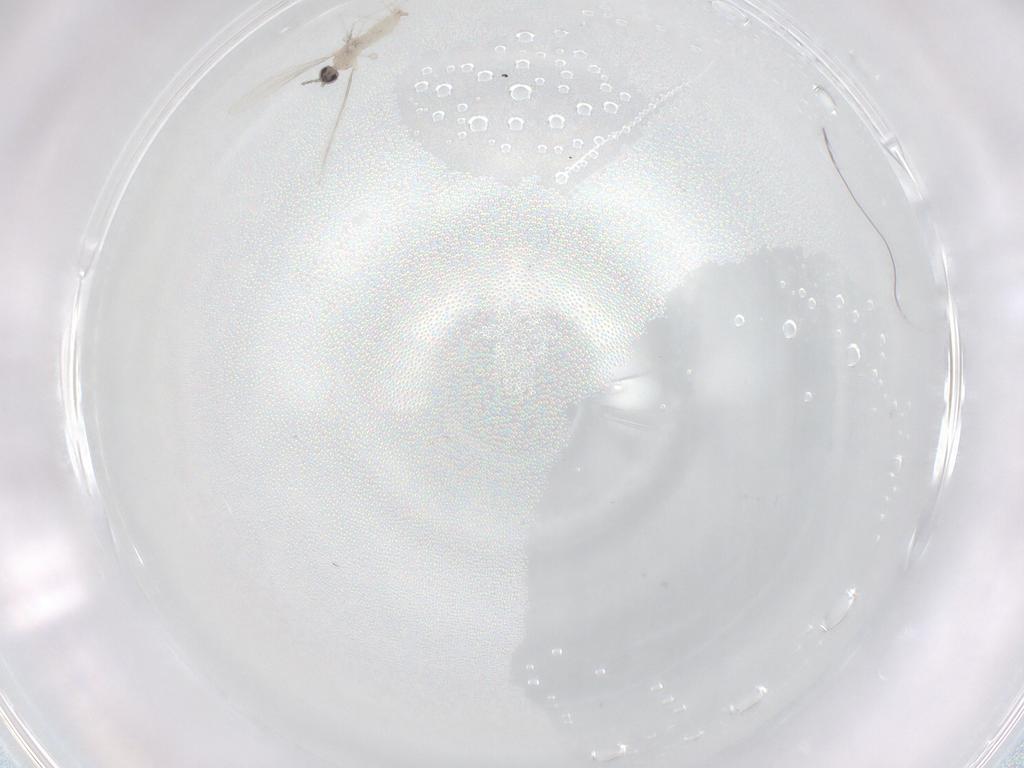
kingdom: Animalia
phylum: Arthropoda
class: Insecta
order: Diptera
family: Cecidomyiidae
